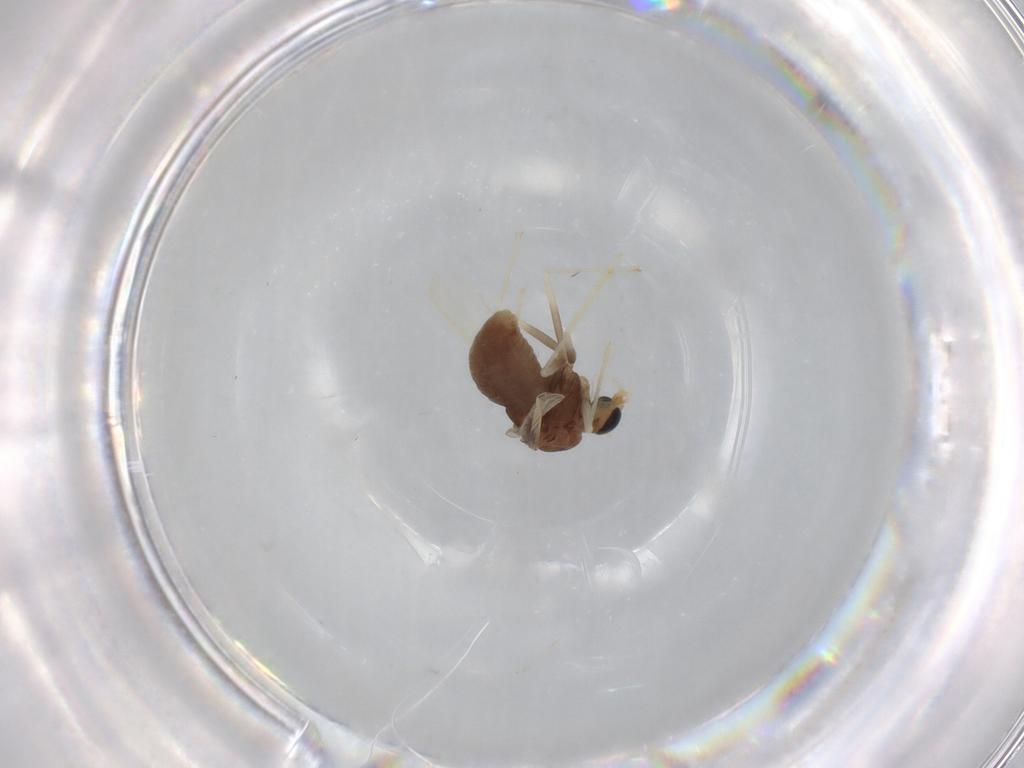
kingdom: Animalia
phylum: Arthropoda
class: Insecta
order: Diptera
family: Chironomidae
